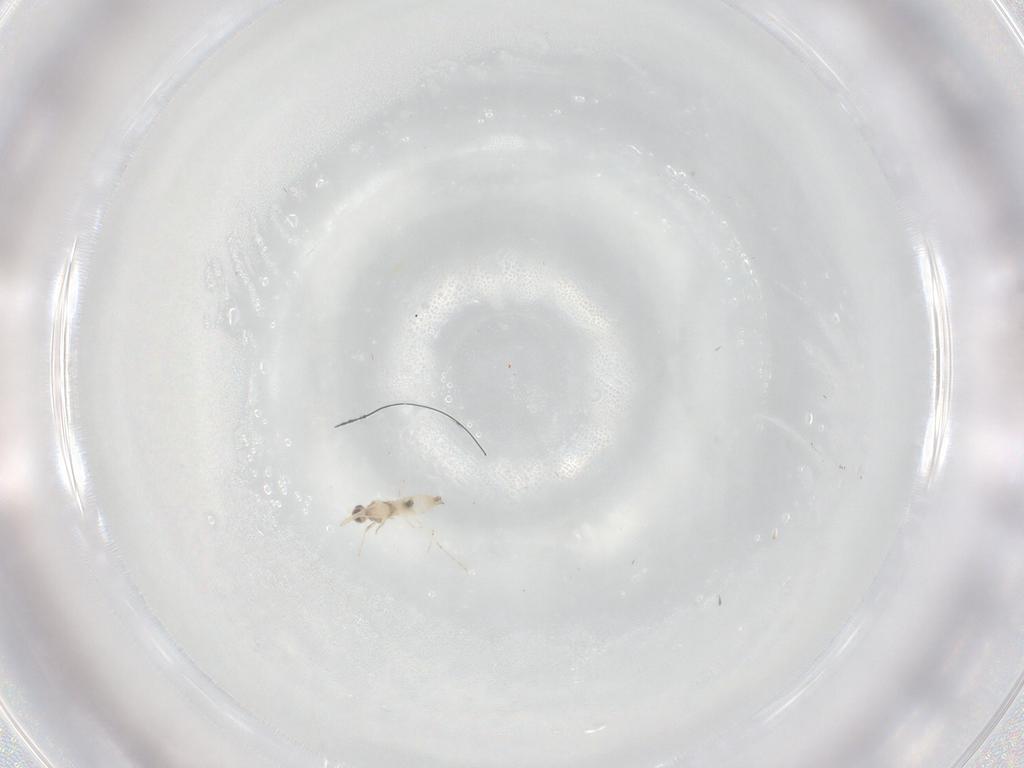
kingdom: Animalia
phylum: Arthropoda
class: Insecta
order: Diptera
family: Cecidomyiidae
